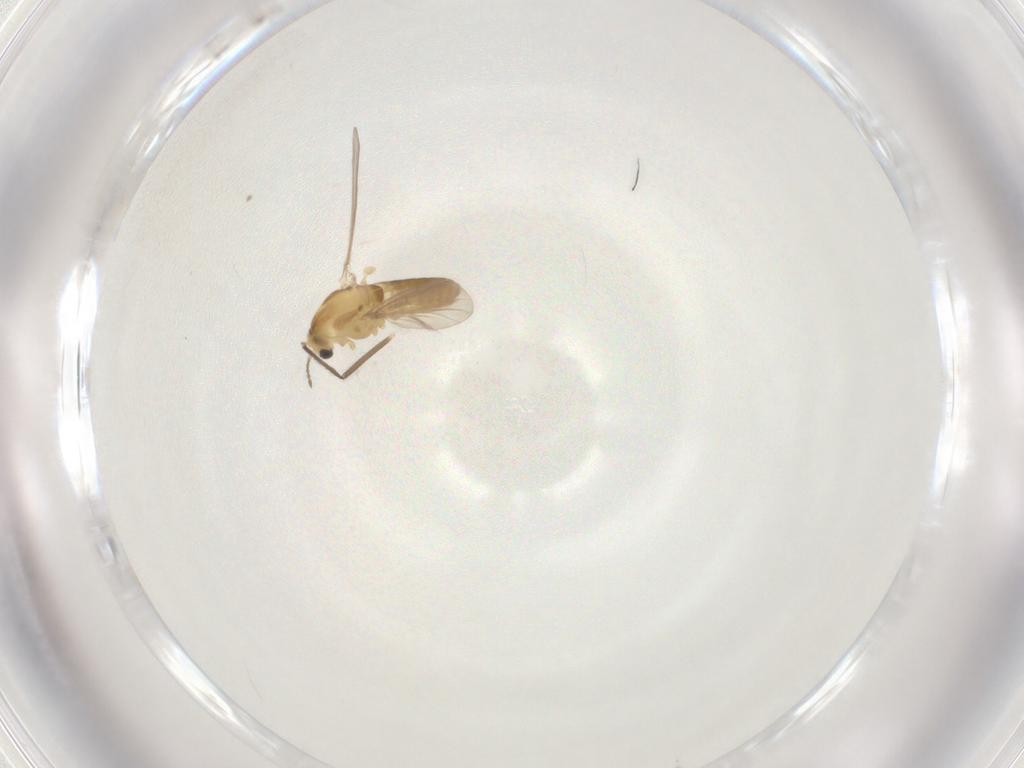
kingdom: Animalia
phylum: Arthropoda
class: Insecta
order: Diptera
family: Chironomidae
